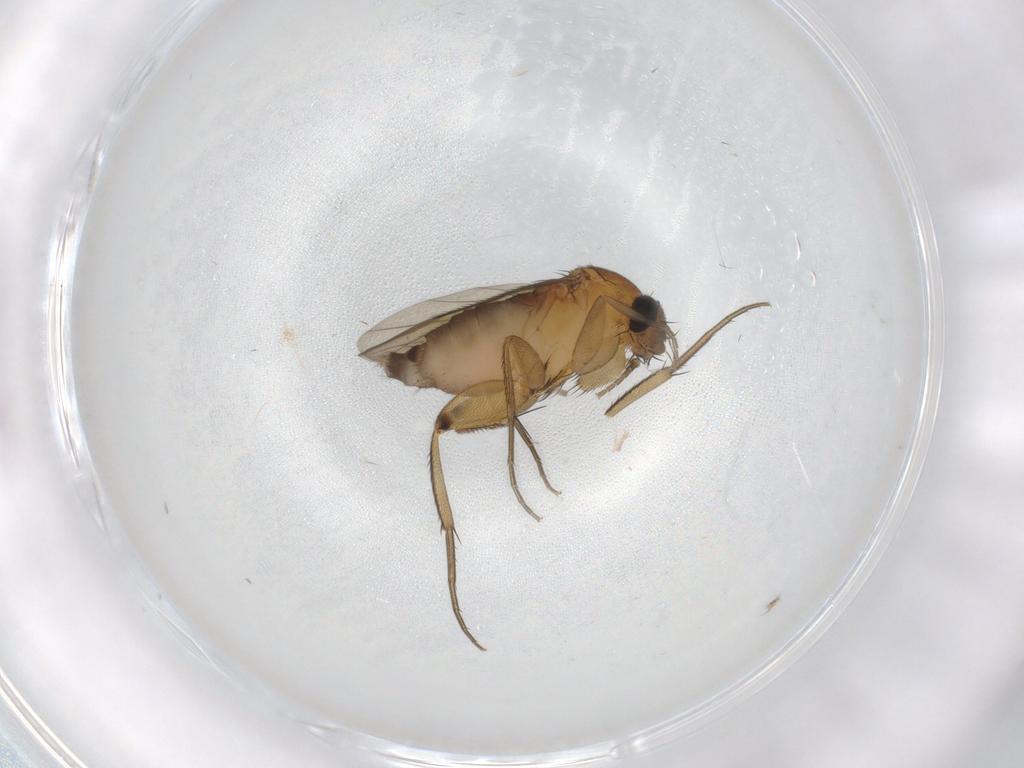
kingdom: Animalia
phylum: Arthropoda
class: Insecta
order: Diptera
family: Phoridae
